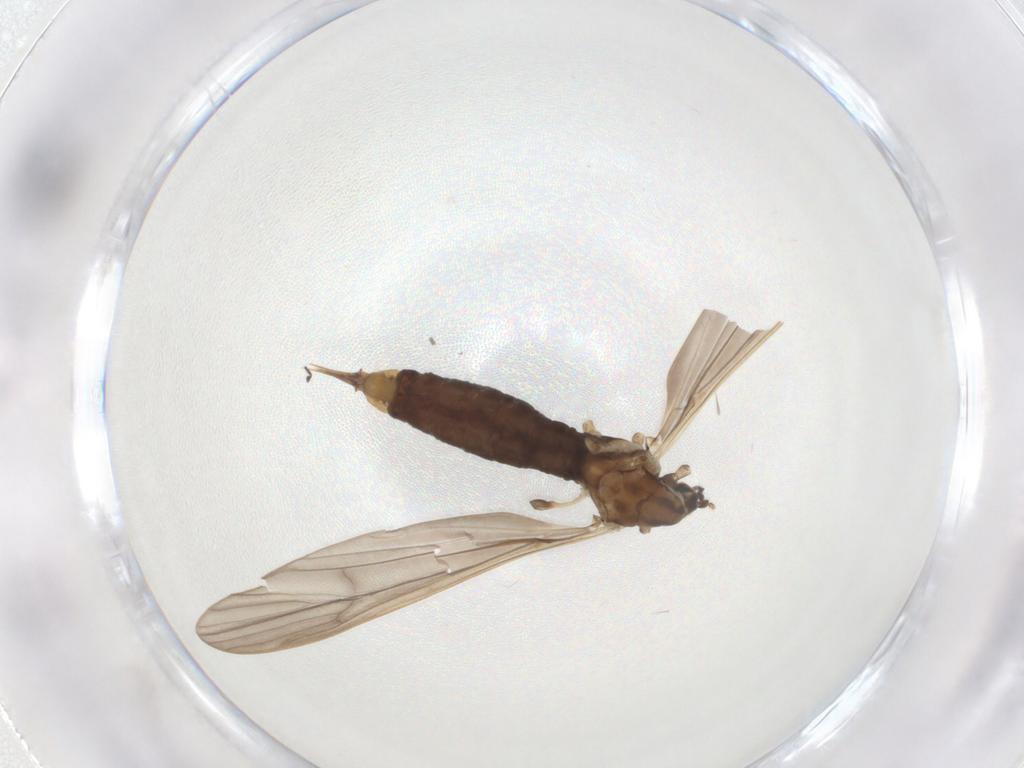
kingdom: Animalia
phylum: Arthropoda
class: Insecta
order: Diptera
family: Limoniidae
